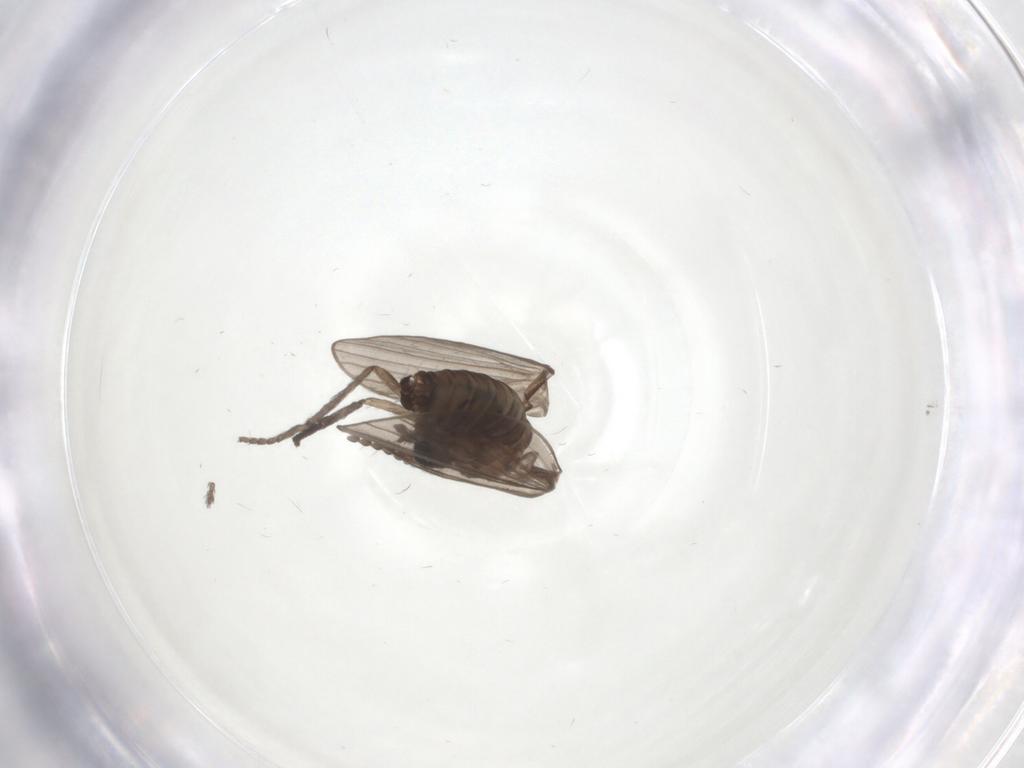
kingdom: Animalia
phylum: Arthropoda
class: Insecta
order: Diptera
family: Psychodidae
